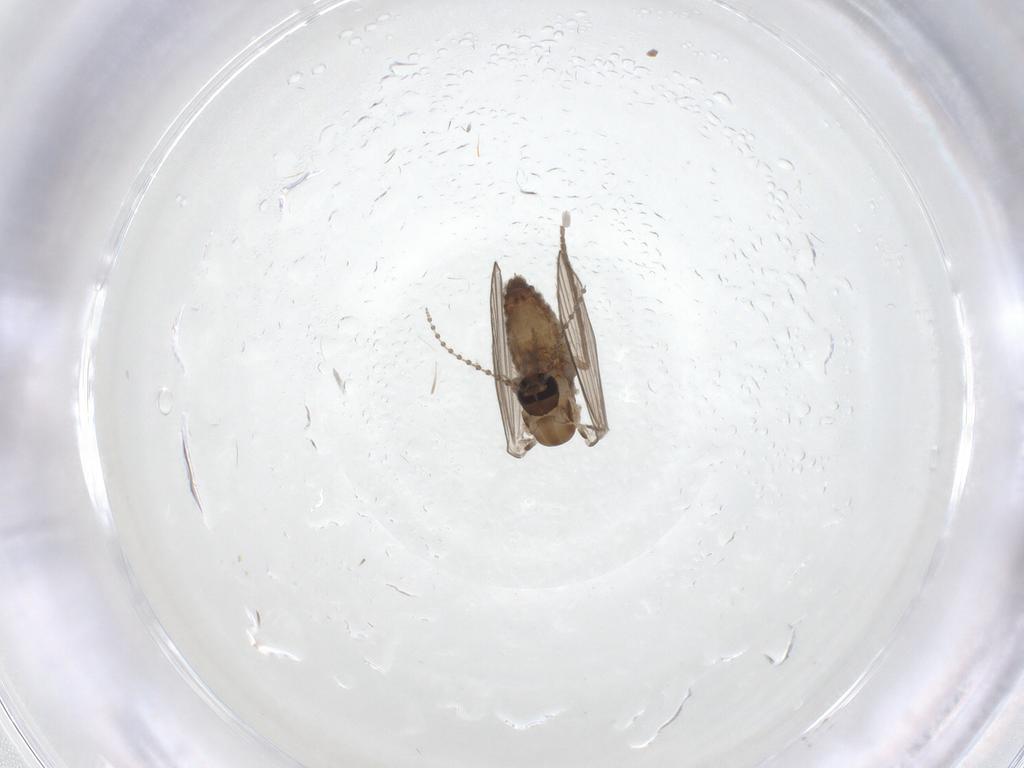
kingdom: Animalia
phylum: Arthropoda
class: Insecta
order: Diptera
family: Psychodidae
